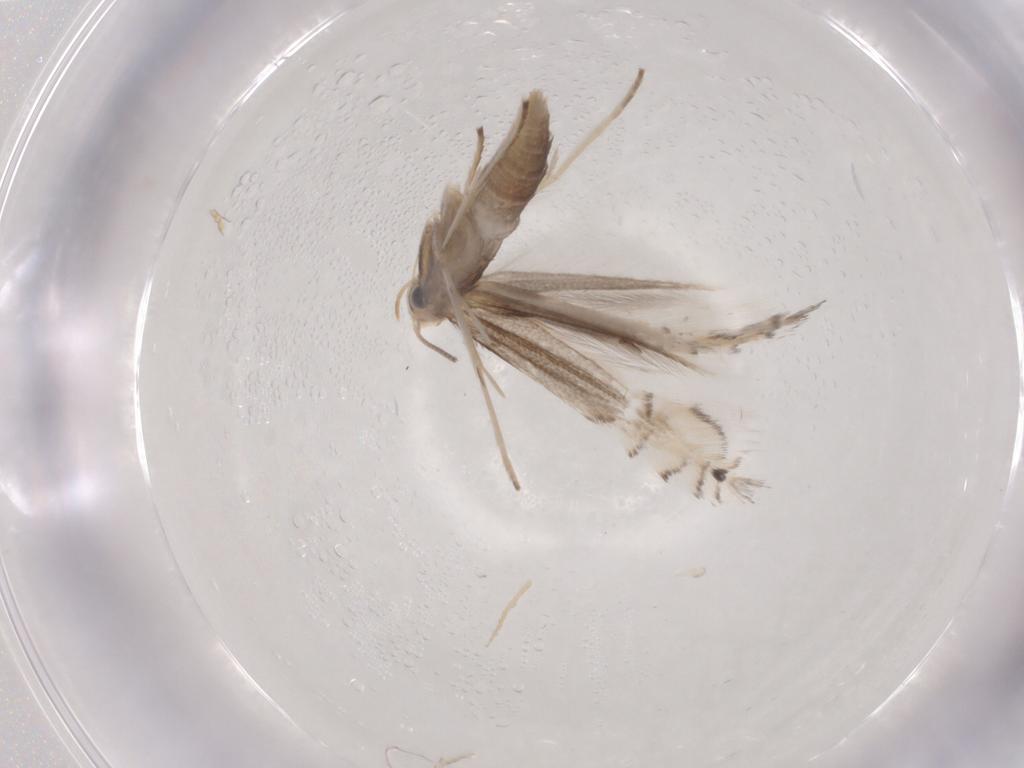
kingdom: Animalia
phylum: Arthropoda
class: Insecta
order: Lepidoptera
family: Gracillariidae
